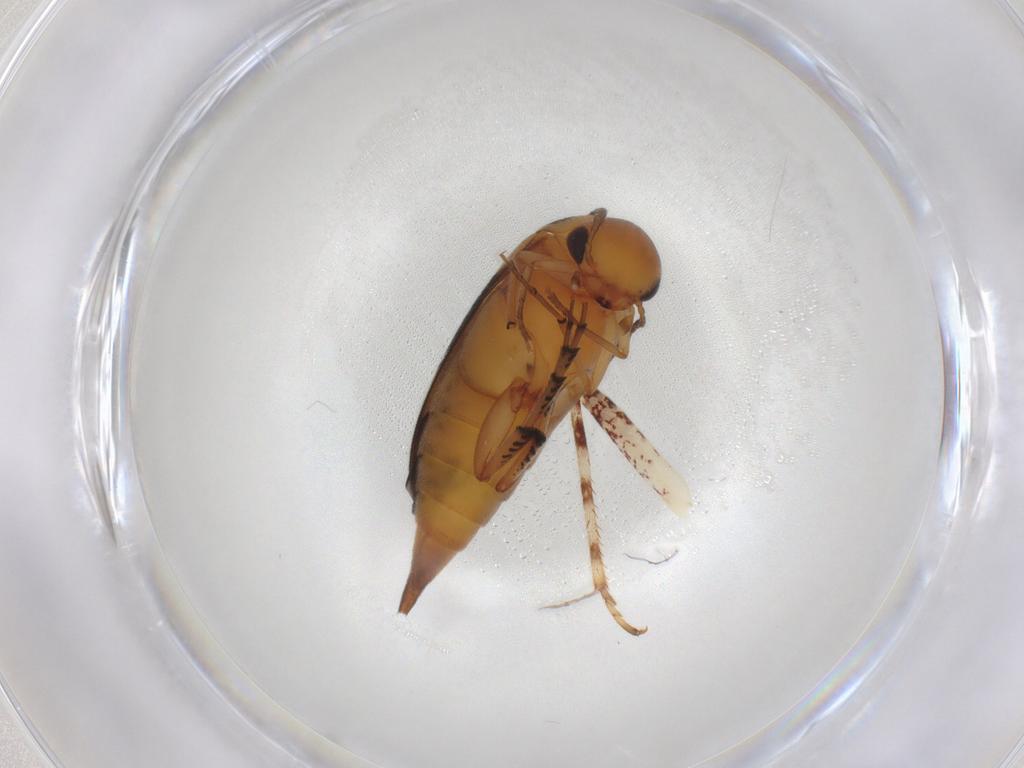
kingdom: Animalia
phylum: Arthropoda
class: Insecta
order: Coleoptera
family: Mordellidae
